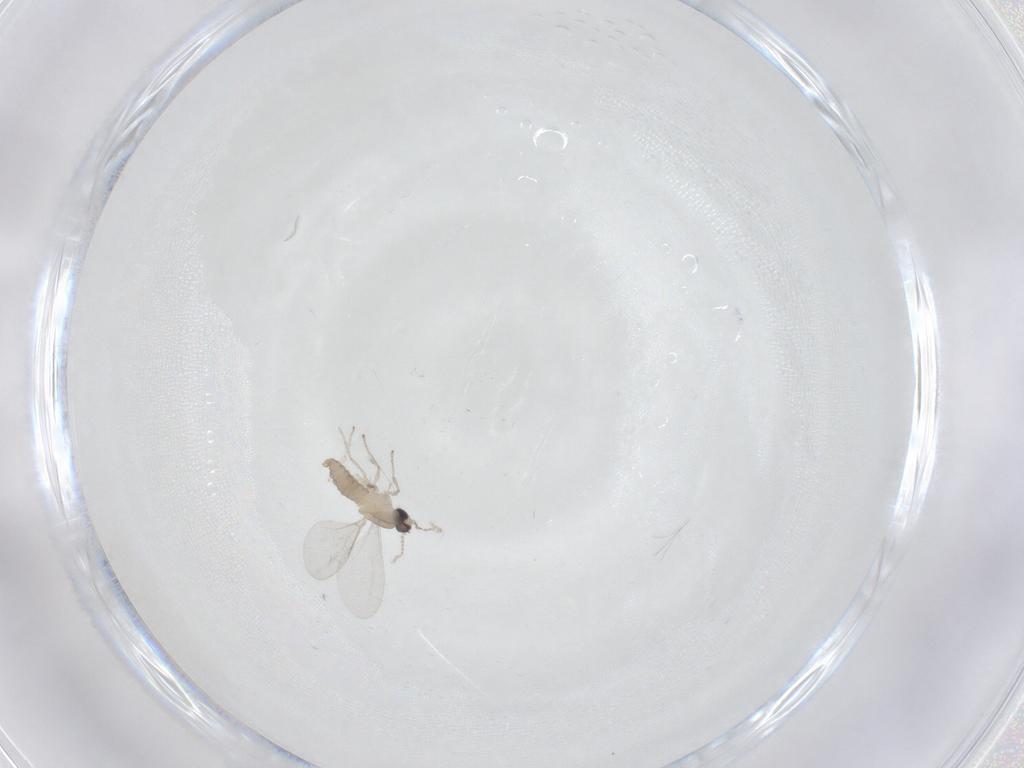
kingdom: Animalia
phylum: Arthropoda
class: Insecta
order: Diptera
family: Cecidomyiidae
